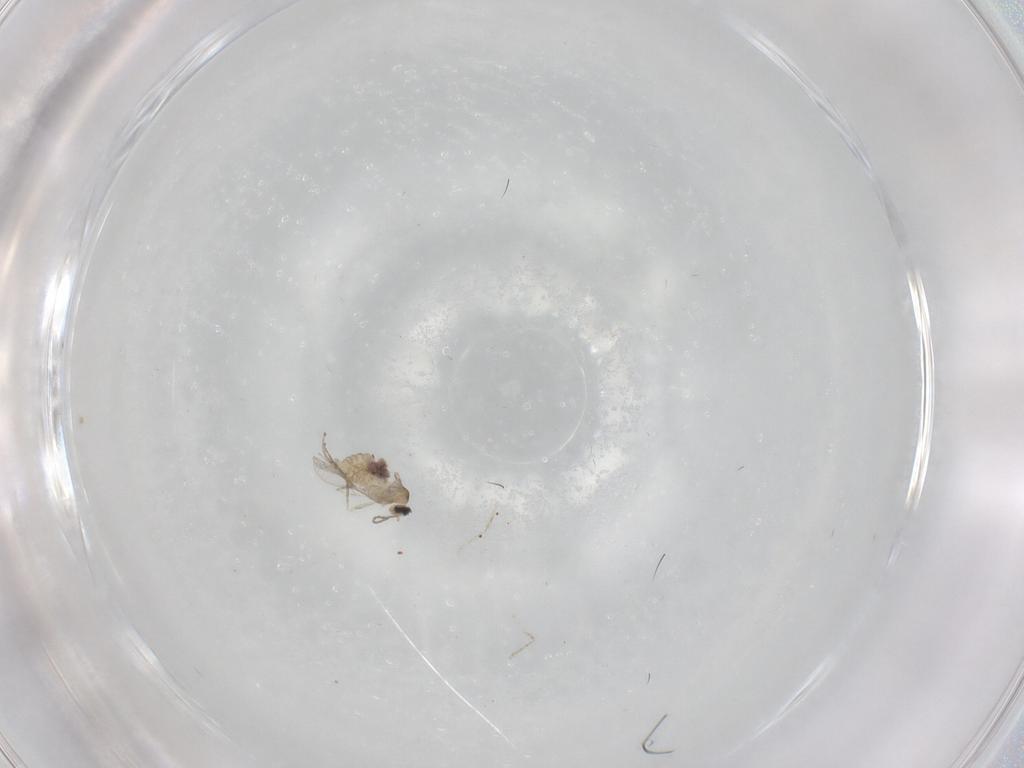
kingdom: Animalia
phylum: Arthropoda
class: Insecta
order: Diptera
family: Cecidomyiidae
